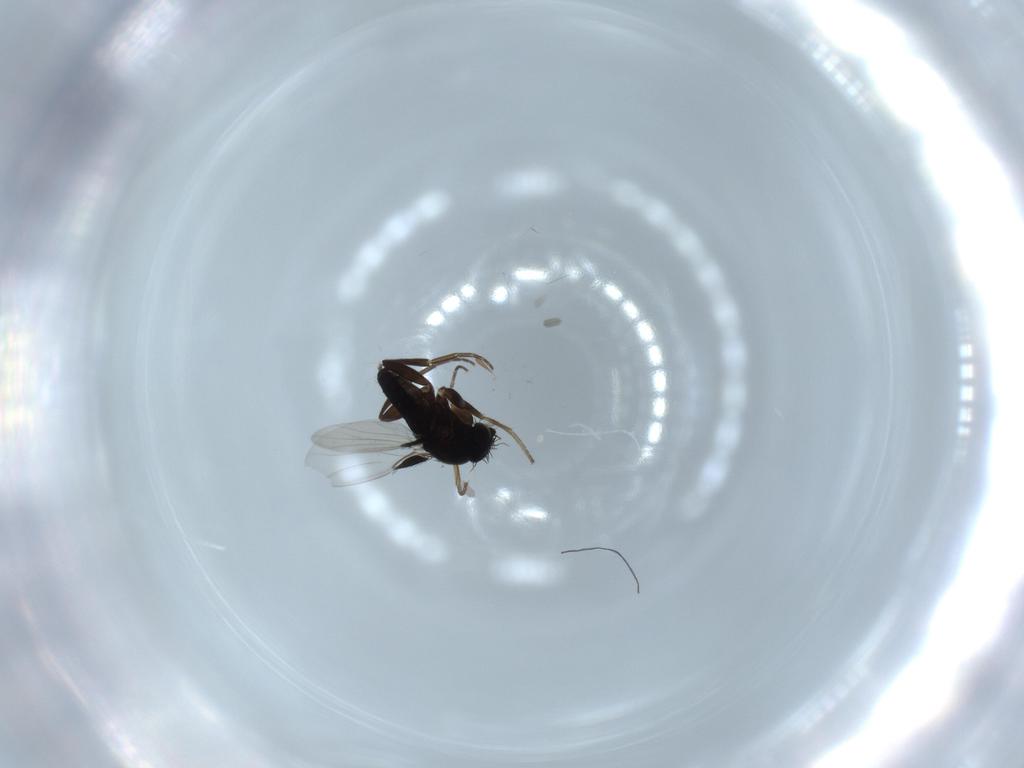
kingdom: Animalia
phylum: Arthropoda
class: Insecta
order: Diptera
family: Phoridae
